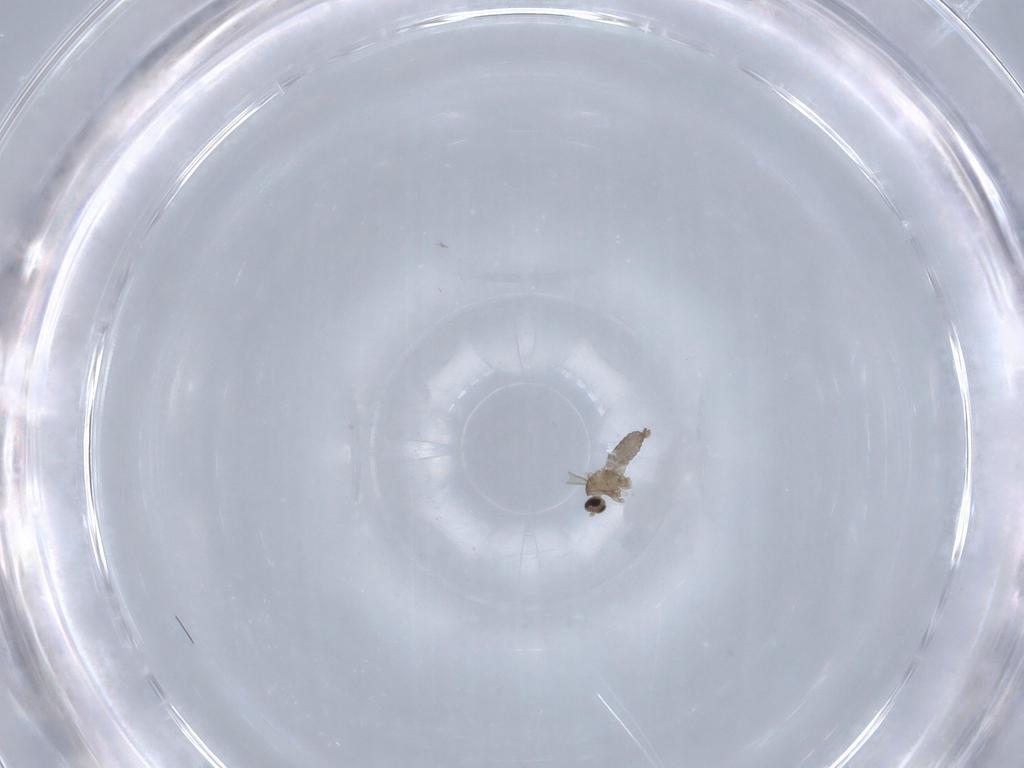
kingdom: Animalia
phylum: Arthropoda
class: Insecta
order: Diptera
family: Cecidomyiidae
